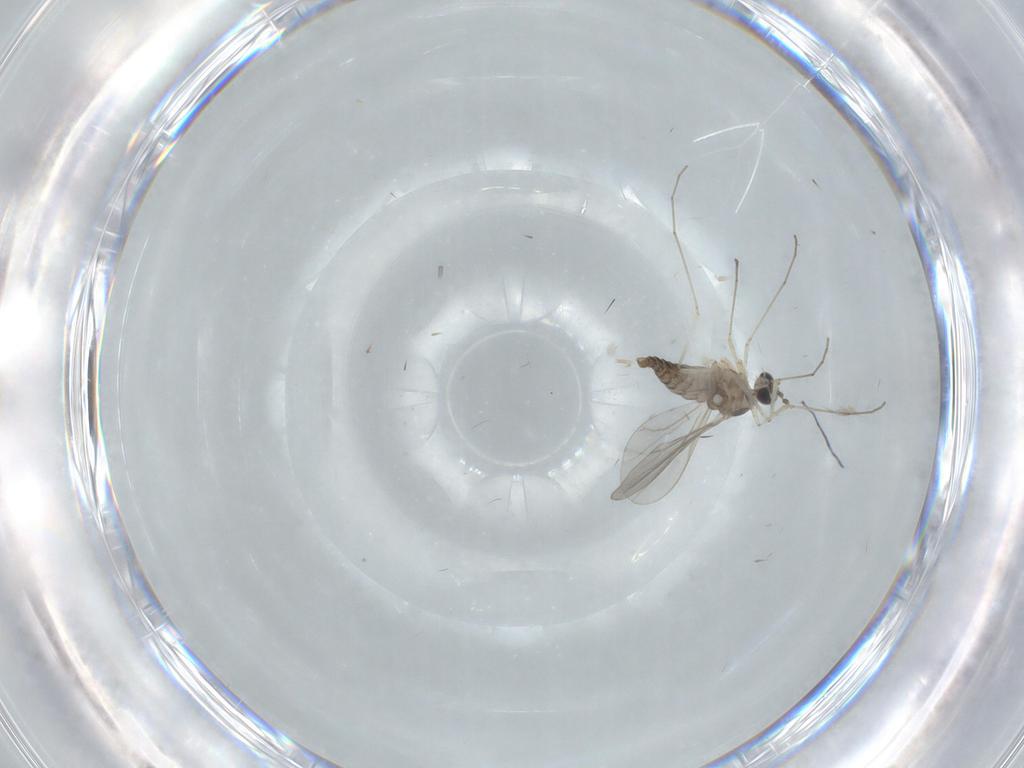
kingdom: Animalia
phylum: Arthropoda
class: Insecta
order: Diptera
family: Cecidomyiidae
